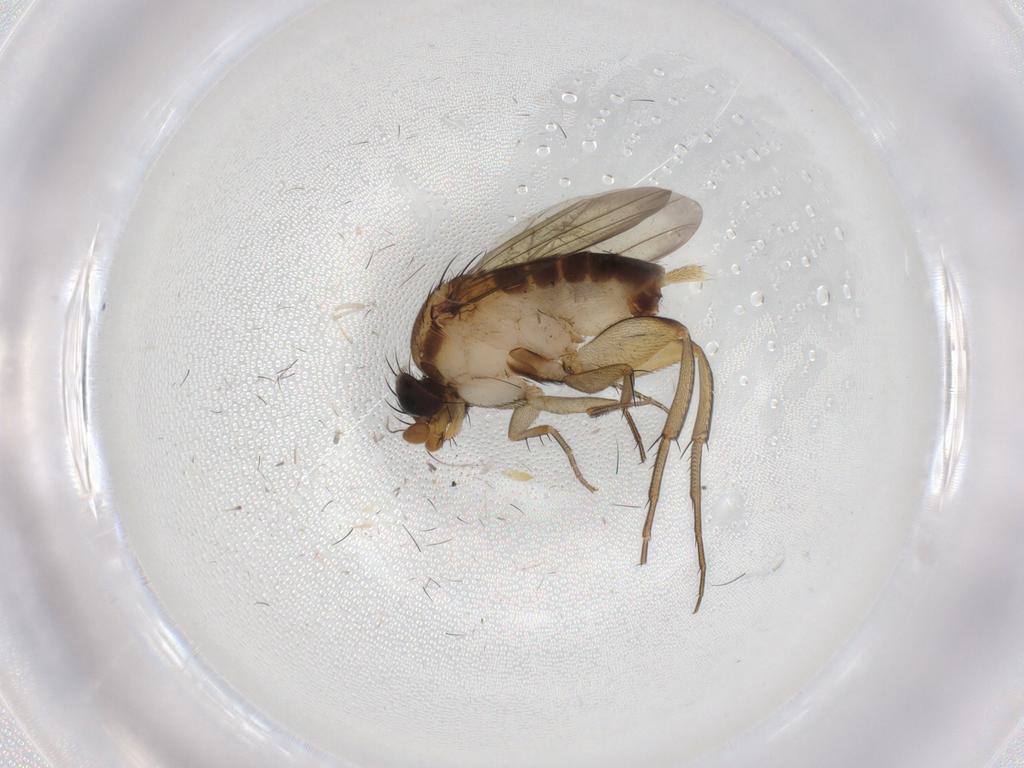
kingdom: Animalia
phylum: Arthropoda
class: Insecta
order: Diptera
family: Phoridae
